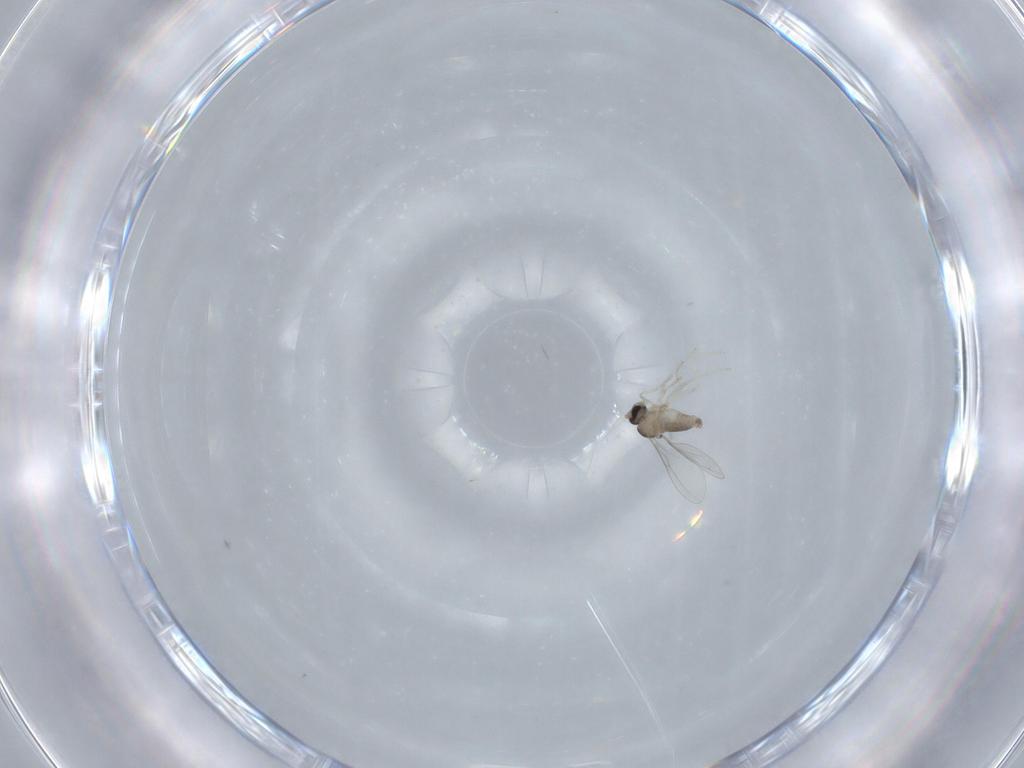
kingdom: Animalia
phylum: Arthropoda
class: Insecta
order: Diptera
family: Cecidomyiidae
